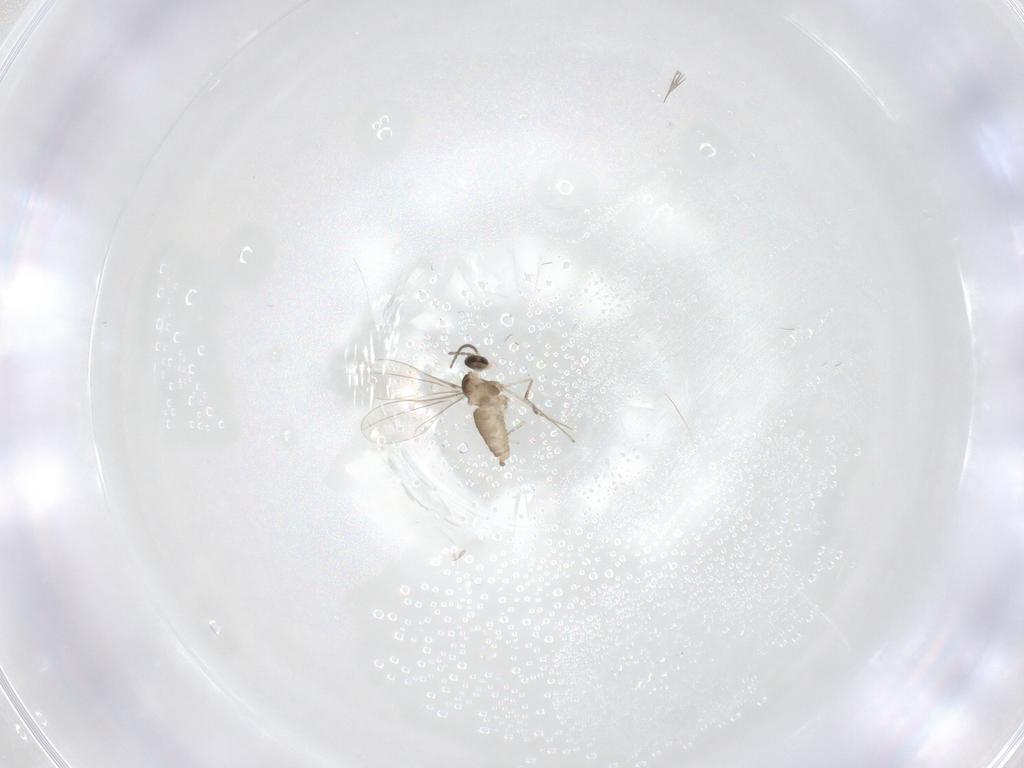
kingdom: Animalia
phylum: Arthropoda
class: Insecta
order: Diptera
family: Cecidomyiidae
